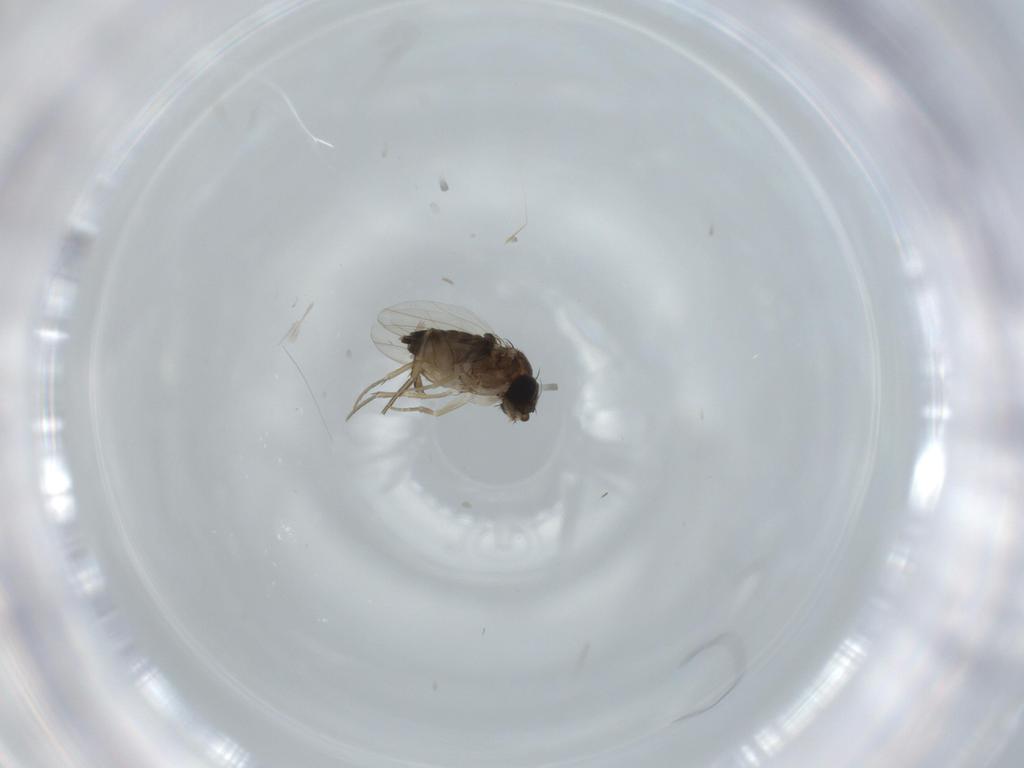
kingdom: Animalia
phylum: Arthropoda
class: Insecta
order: Diptera
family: Phoridae
